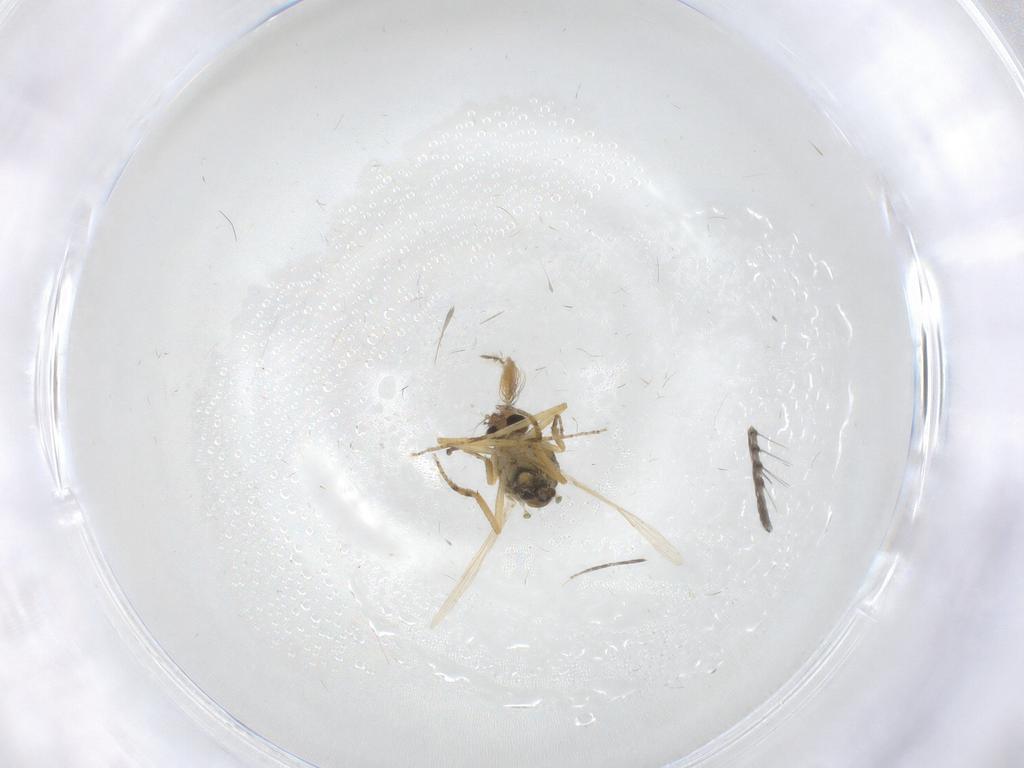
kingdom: Animalia
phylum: Arthropoda
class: Insecta
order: Diptera
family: Ceratopogonidae
